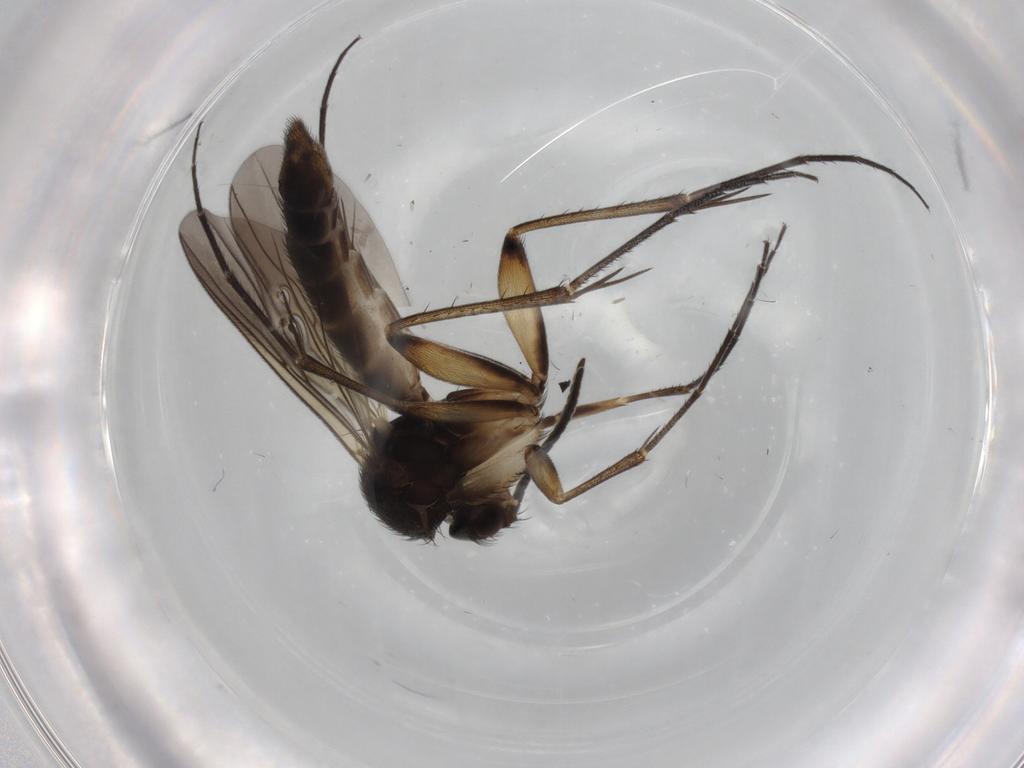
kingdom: Animalia
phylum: Arthropoda
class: Insecta
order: Diptera
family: Mycetophilidae
